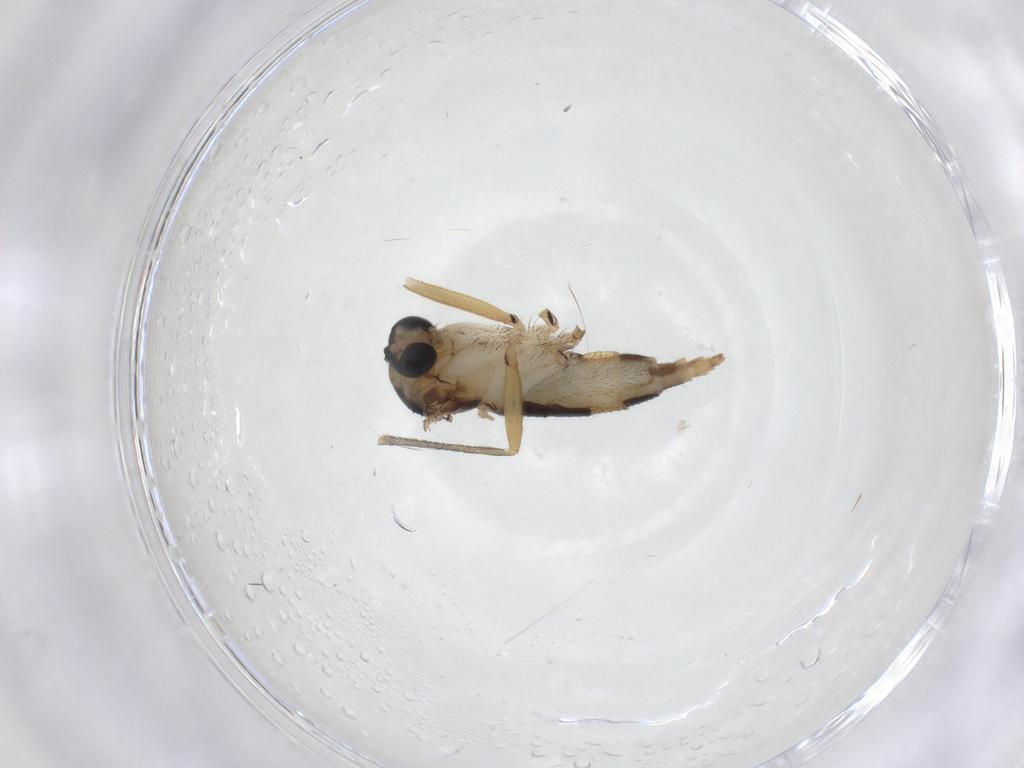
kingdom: Animalia
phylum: Arthropoda
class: Insecta
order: Diptera
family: Sciaridae
